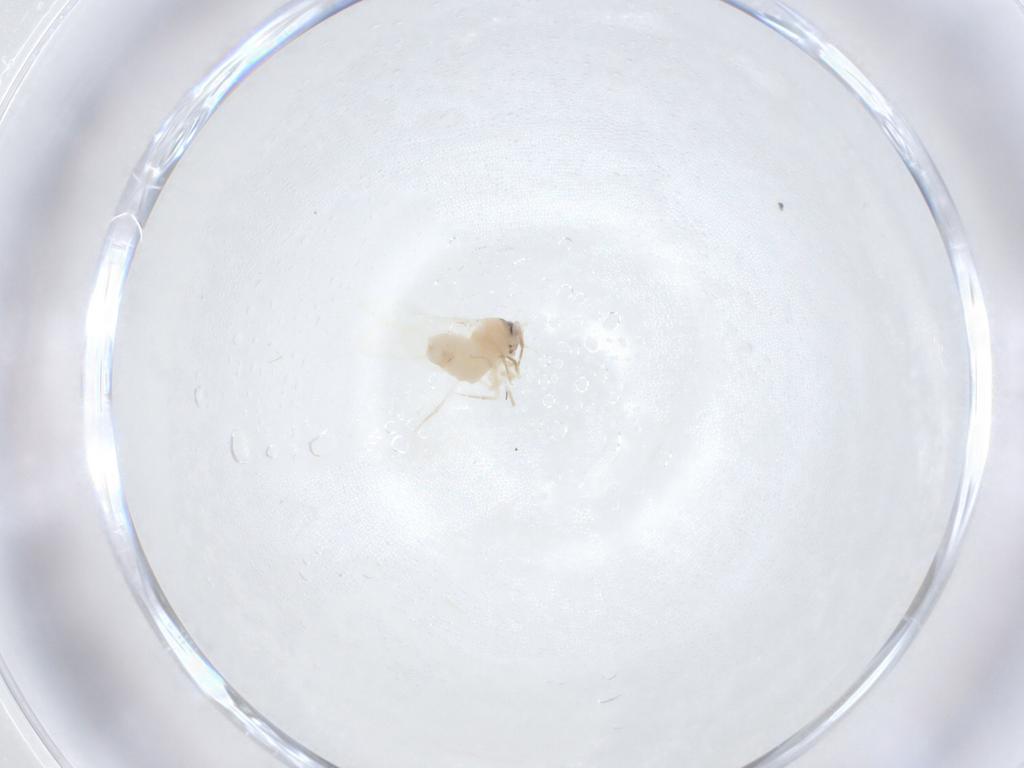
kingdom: Animalia
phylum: Arthropoda
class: Insecta
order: Hemiptera
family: Aleyrodidae
